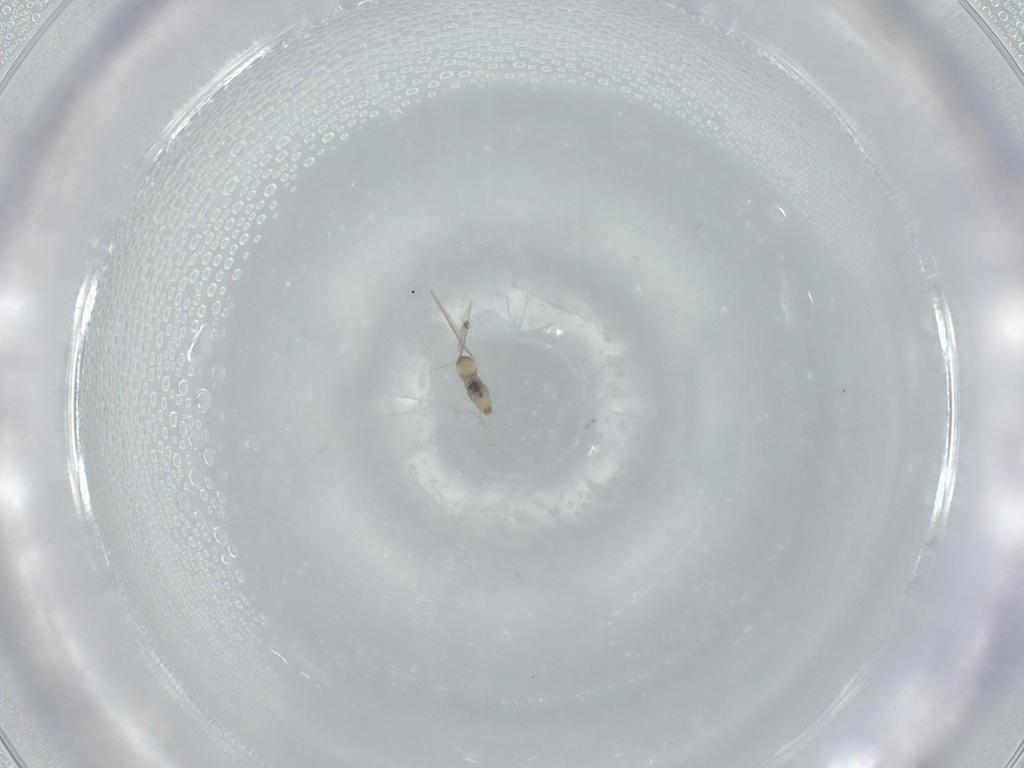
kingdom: Animalia
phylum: Arthropoda
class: Insecta
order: Diptera
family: Cecidomyiidae
